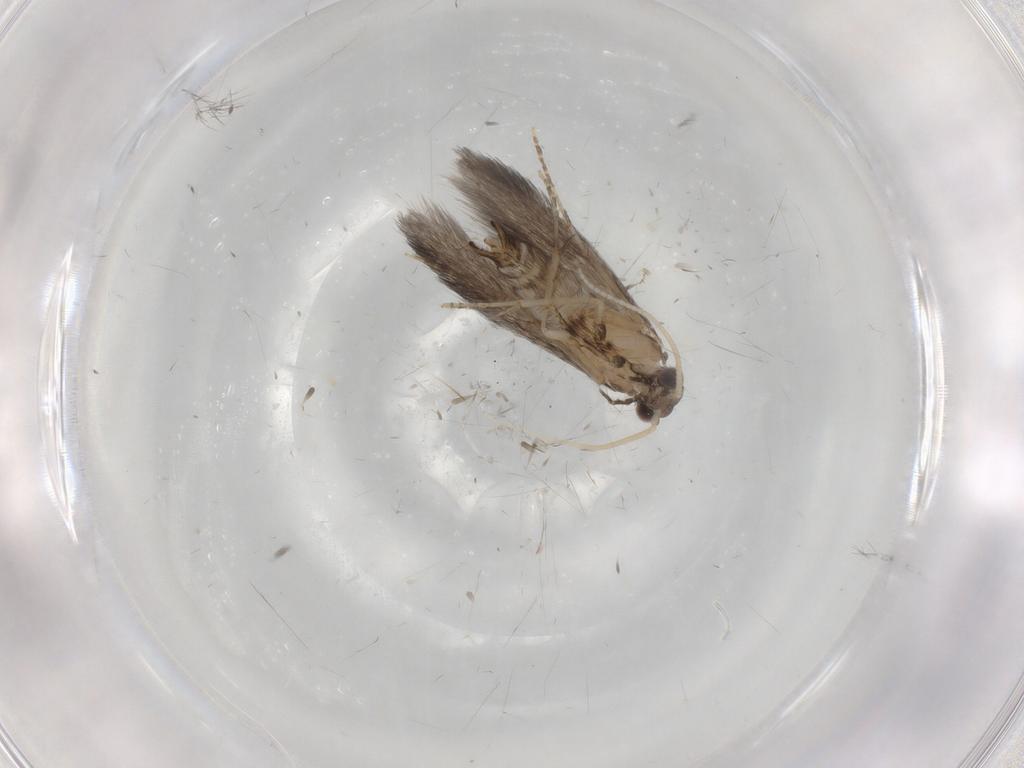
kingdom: Animalia
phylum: Arthropoda
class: Insecta
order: Trichoptera
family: Hydroptilidae
